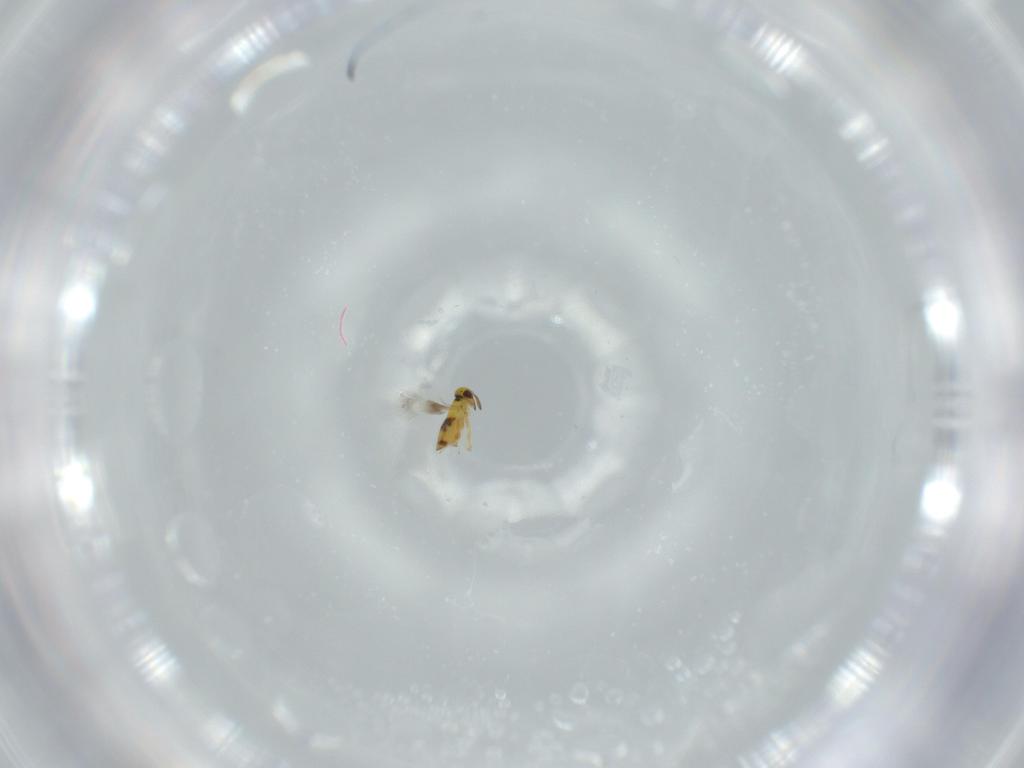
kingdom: Animalia
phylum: Arthropoda
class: Insecta
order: Hymenoptera
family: Signiphoridae
